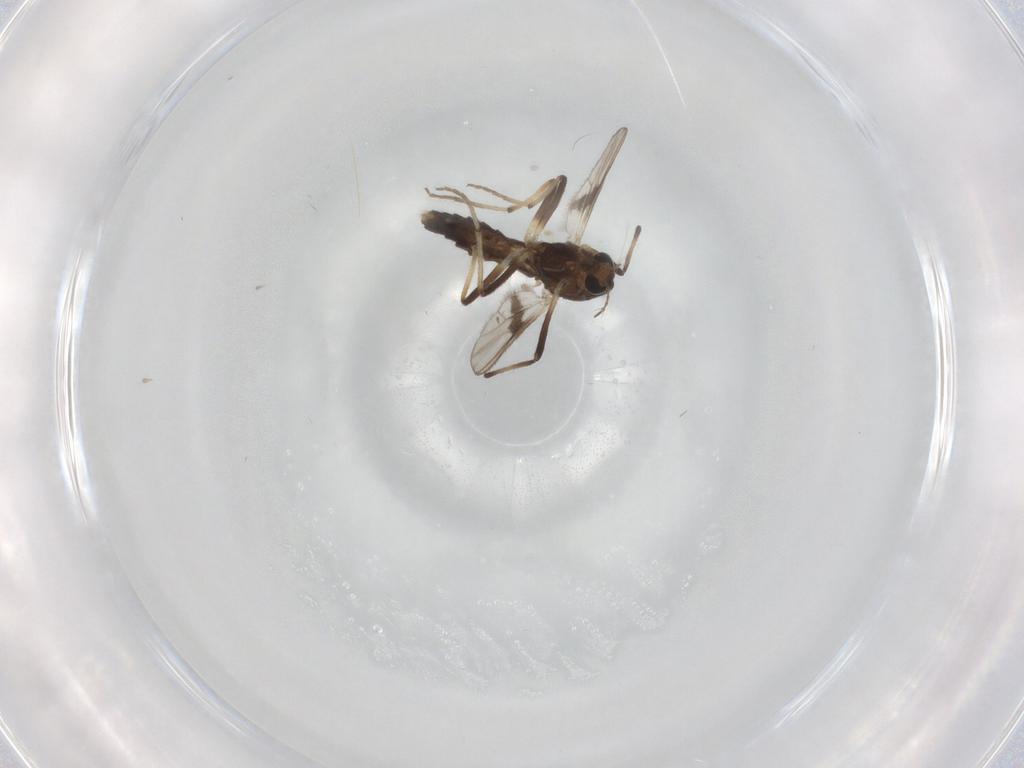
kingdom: Animalia
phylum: Arthropoda
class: Insecta
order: Diptera
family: Chironomidae
